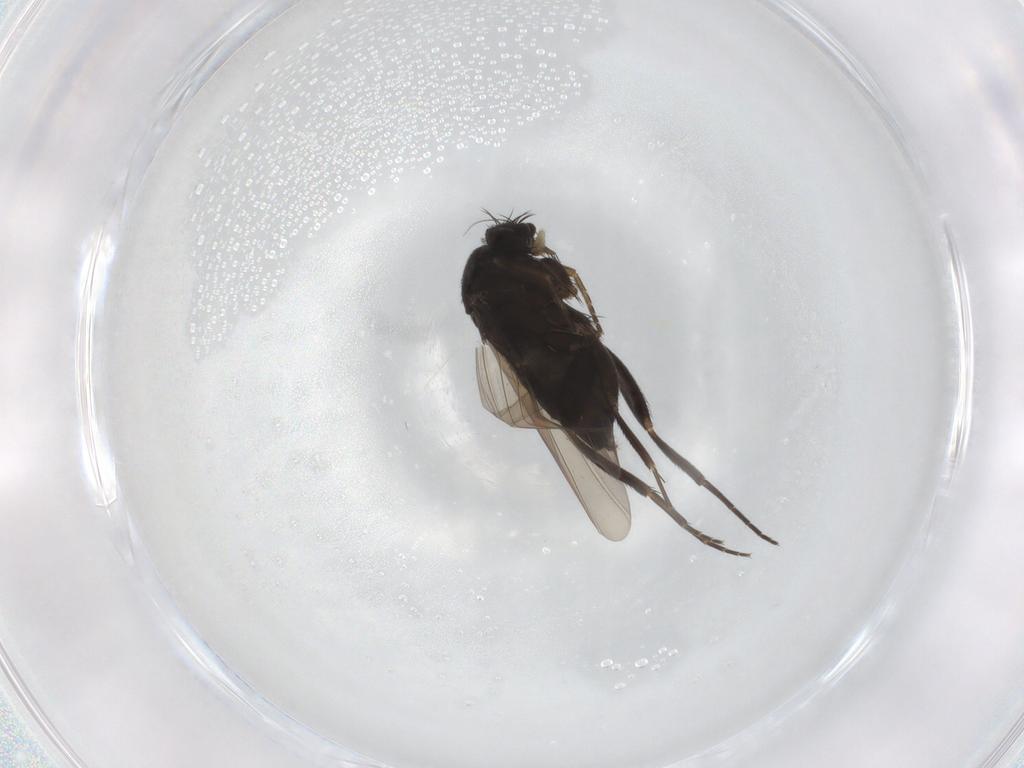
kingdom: Animalia
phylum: Arthropoda
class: Insecta
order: Diptera
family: Phoridae
